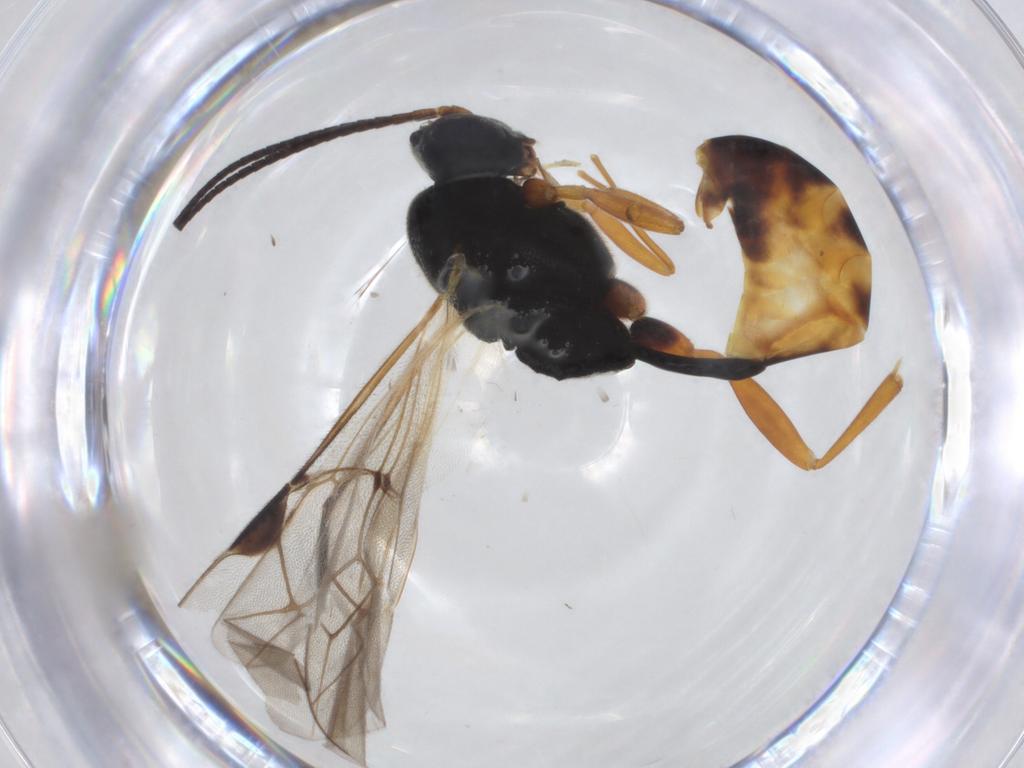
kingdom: Animalia
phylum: Arthropoda
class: Insecta
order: Hymenoptera
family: Ichneumonidae
